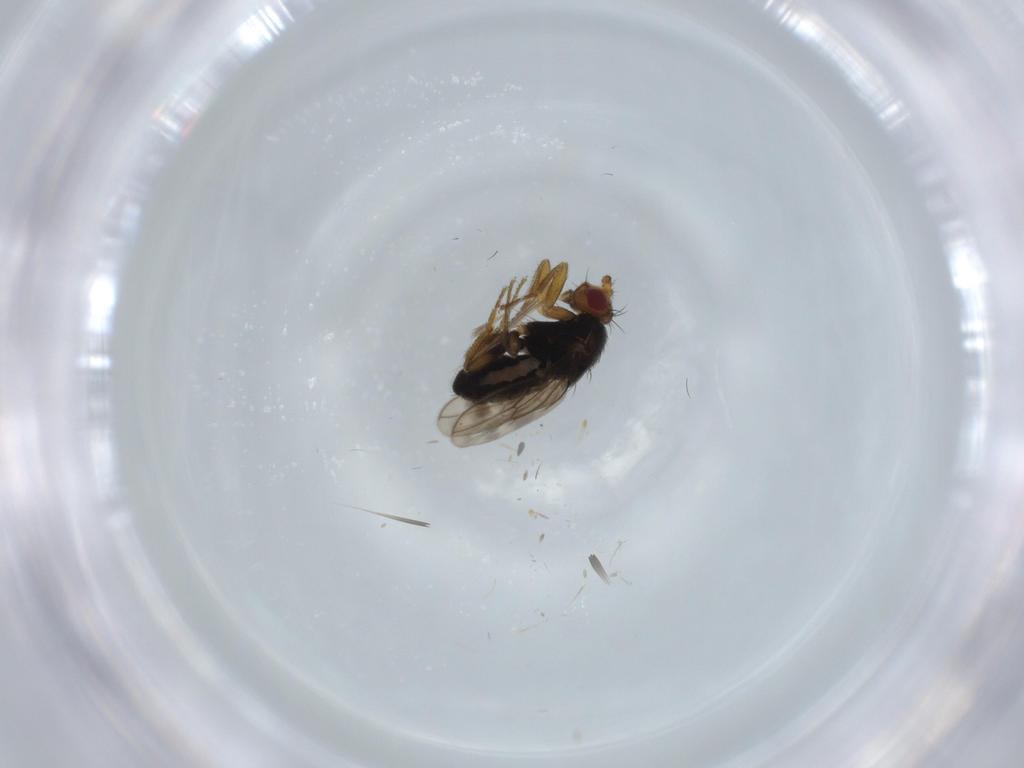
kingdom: Animalia
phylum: Arthropoda
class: Insecta
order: Diptera
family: Sphaeroceridae
